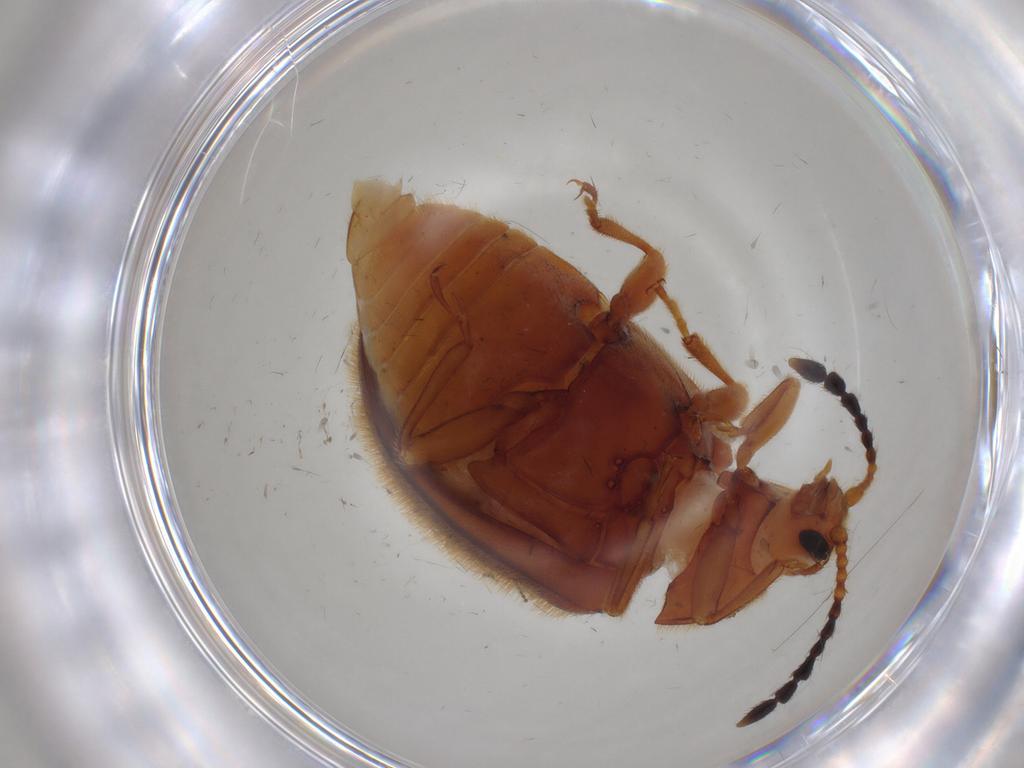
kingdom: Animalia
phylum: Arthropoda
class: Insecta
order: Coleoptera
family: Endomychidae
